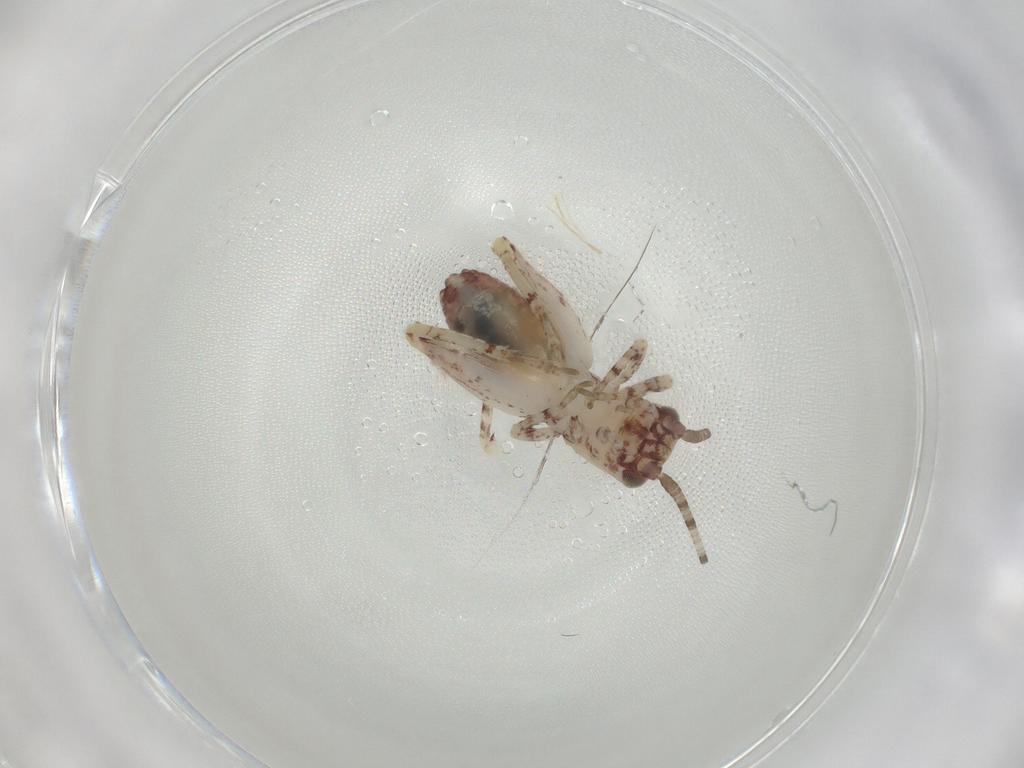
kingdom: Animalia
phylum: Arthropoda
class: Insecta
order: Orthoptera
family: Mogoplistidae
